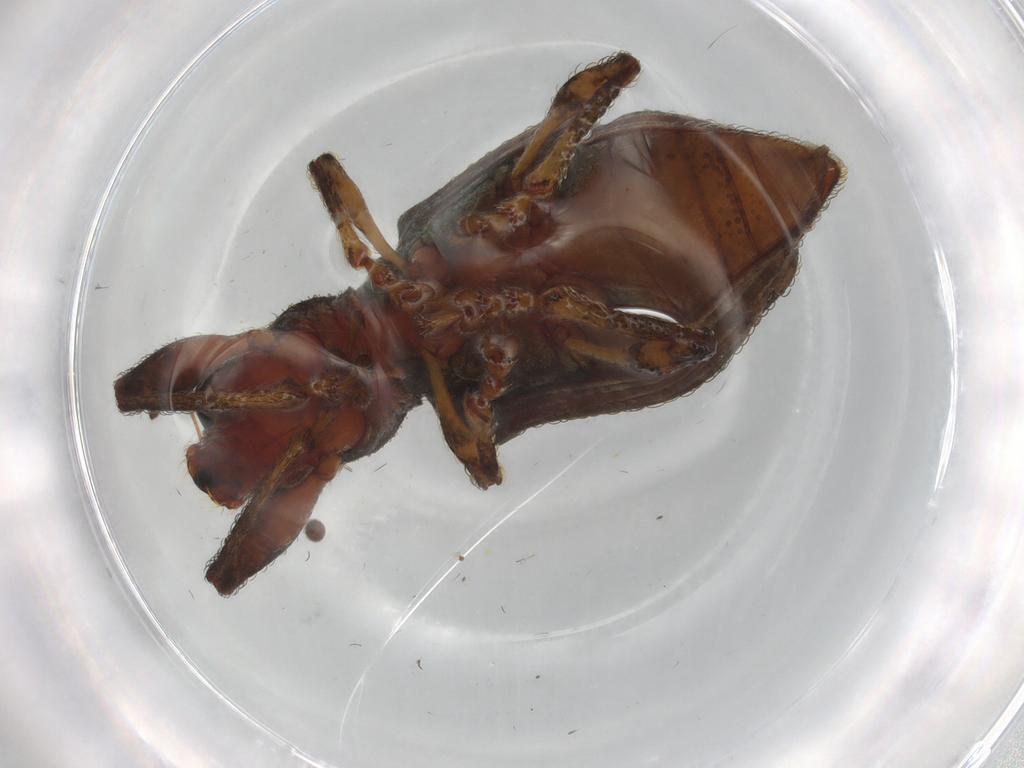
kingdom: Animalia
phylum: Arthropoda
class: Insecta
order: Coleoptera
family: Curculionidae
